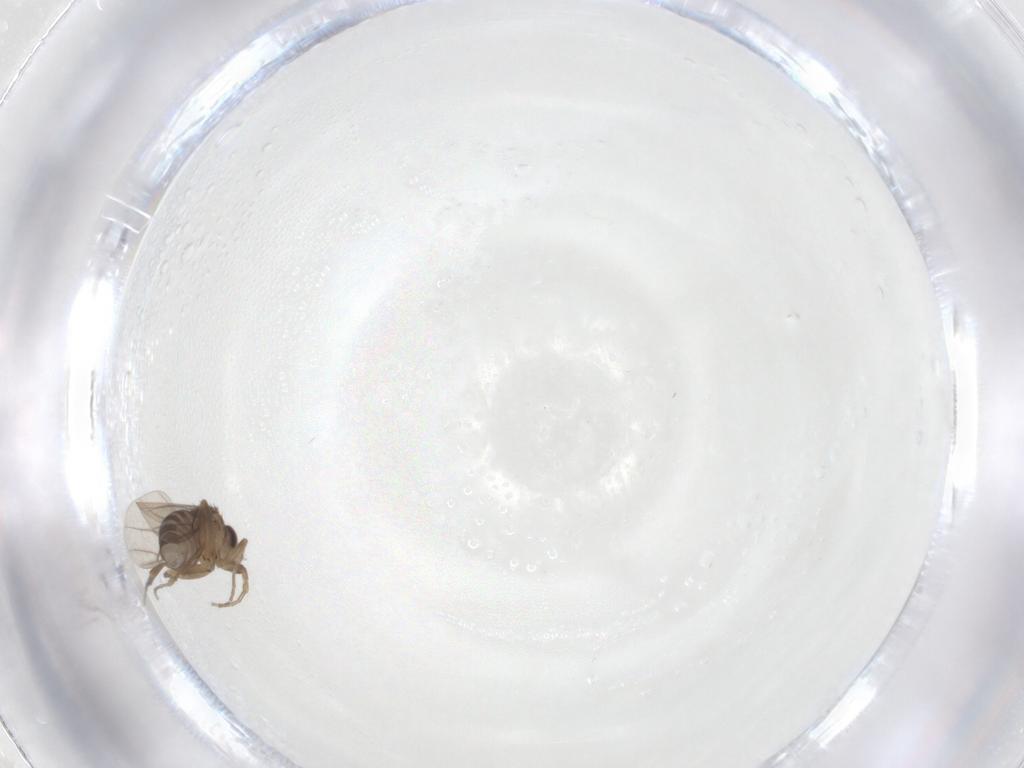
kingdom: Animalia
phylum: Arthropoda
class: Insecta
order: Diptera
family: Phoridae
